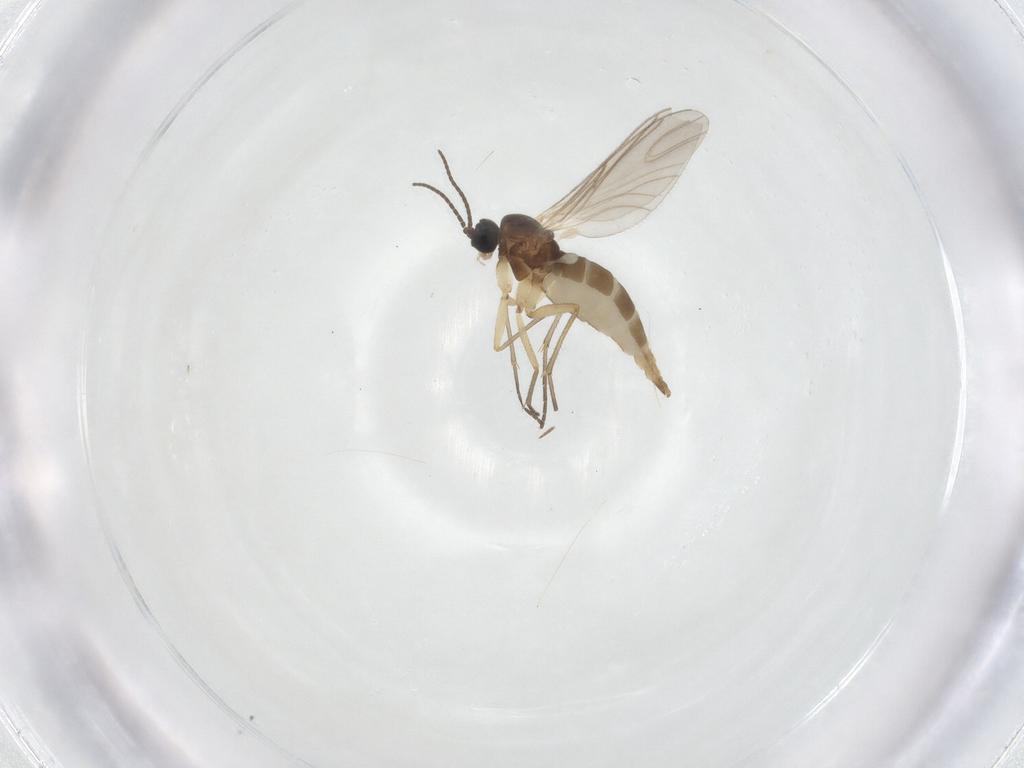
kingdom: Animalia
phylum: Arthropoda
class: Insecta
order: Diptera
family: Sciaridae
